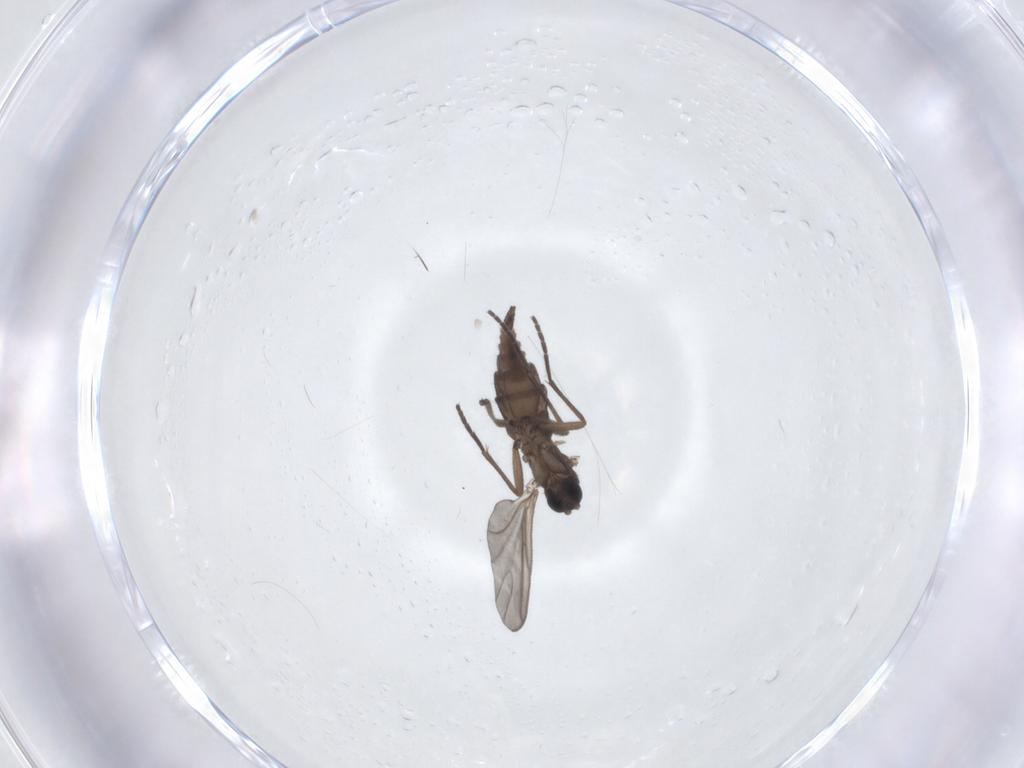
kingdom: Animalia
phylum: Arthropoda
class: Insecta
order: Diptera
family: Sciaridae
